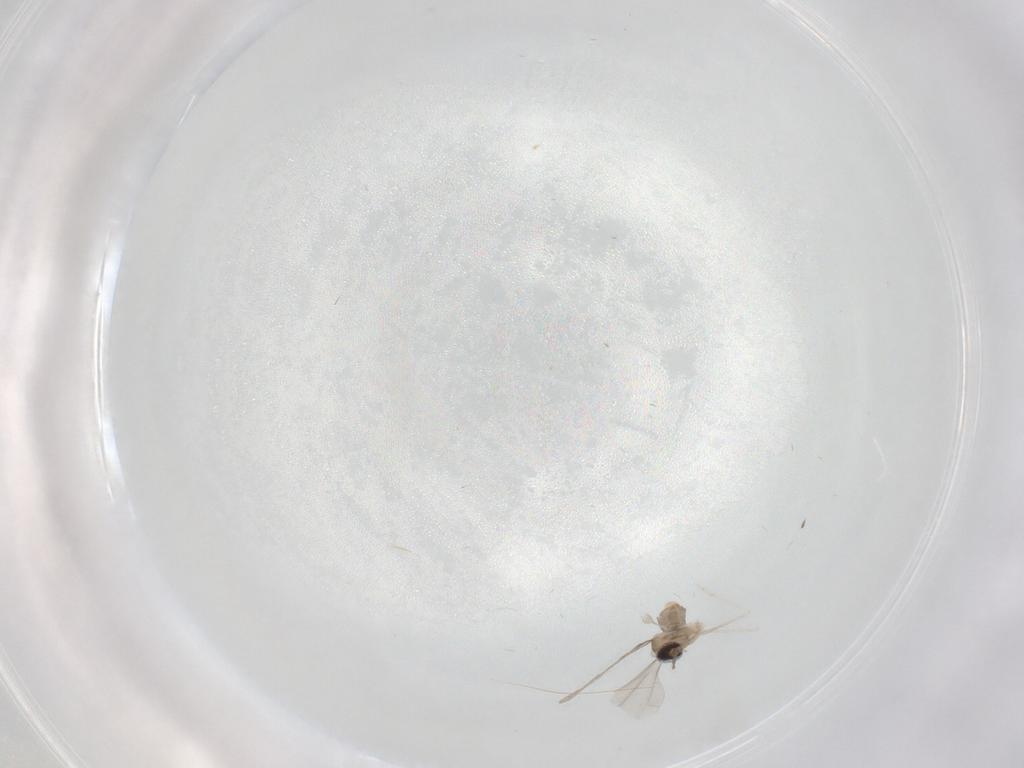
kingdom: Animalia
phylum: Arthropoda
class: Insecta
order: Diptera
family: Cecidomyiidae
